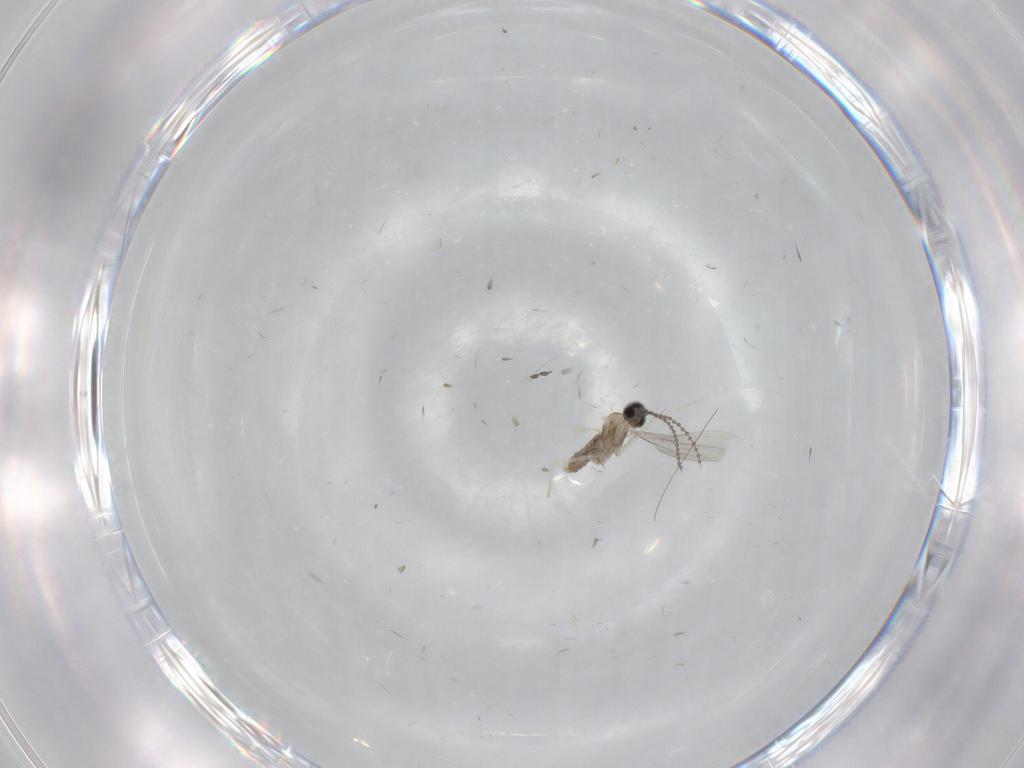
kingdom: Animalia
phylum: Arthropoda
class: Insecta
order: Diptera
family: Cecidomyiidae
